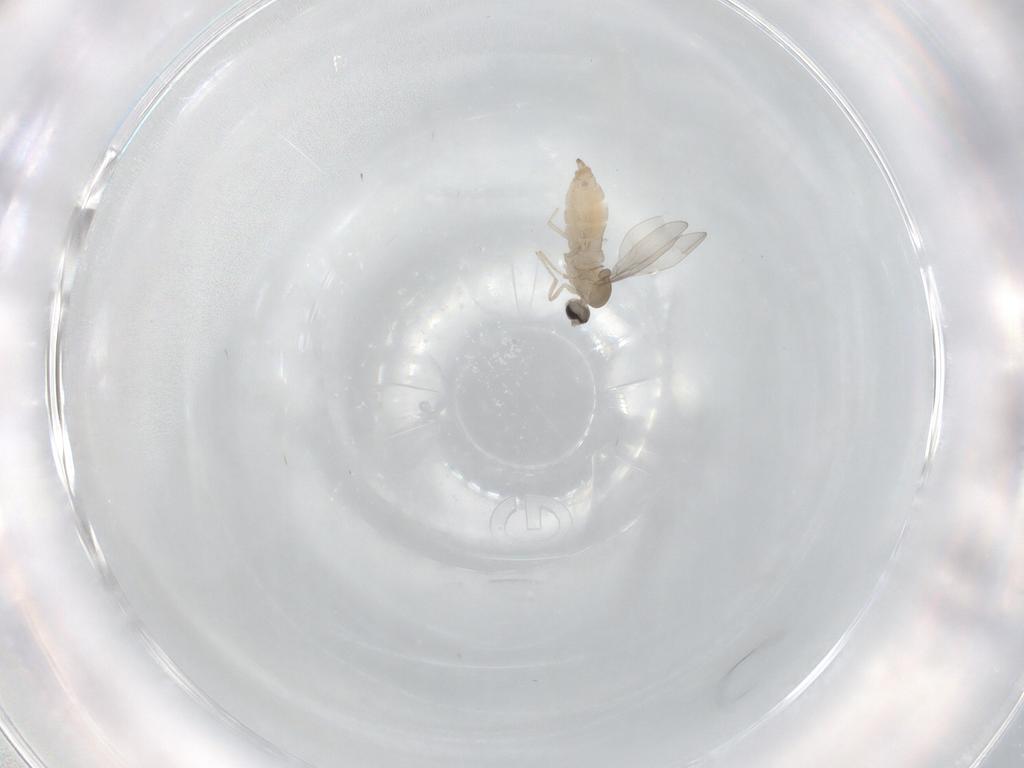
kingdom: Animalia
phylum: Arthropoda
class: Insecta
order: Diptera
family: Cecidomyiidae
